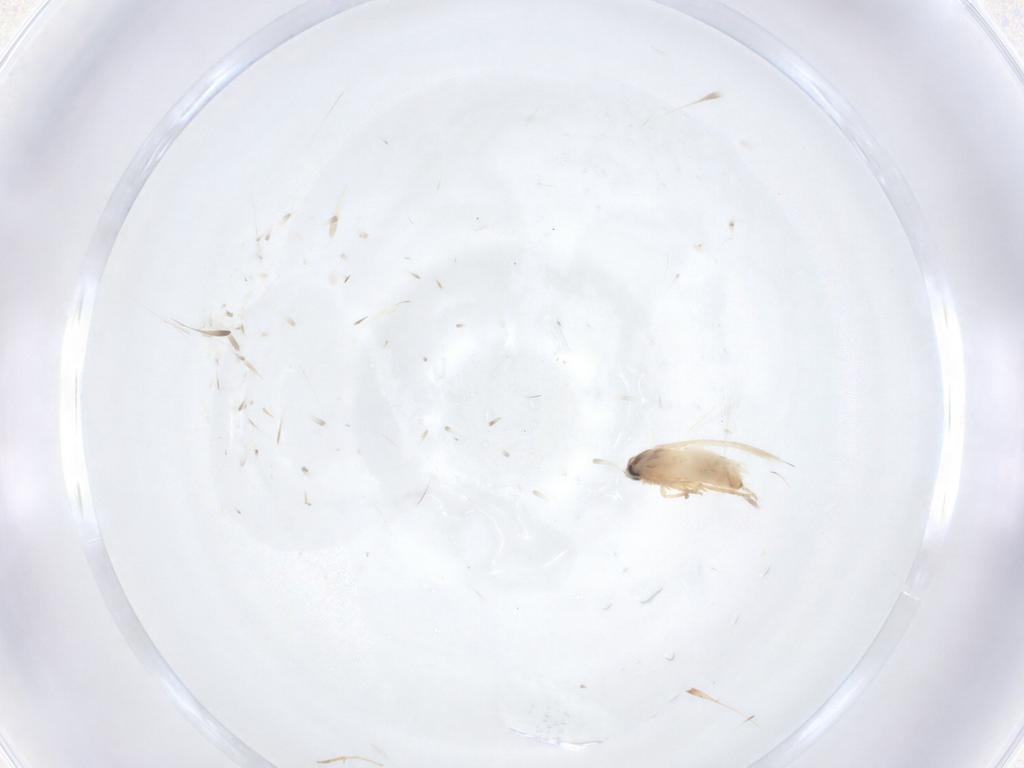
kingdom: Animalia
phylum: Arthropoda
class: Insecta
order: Lepidoptera
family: Crambidae
